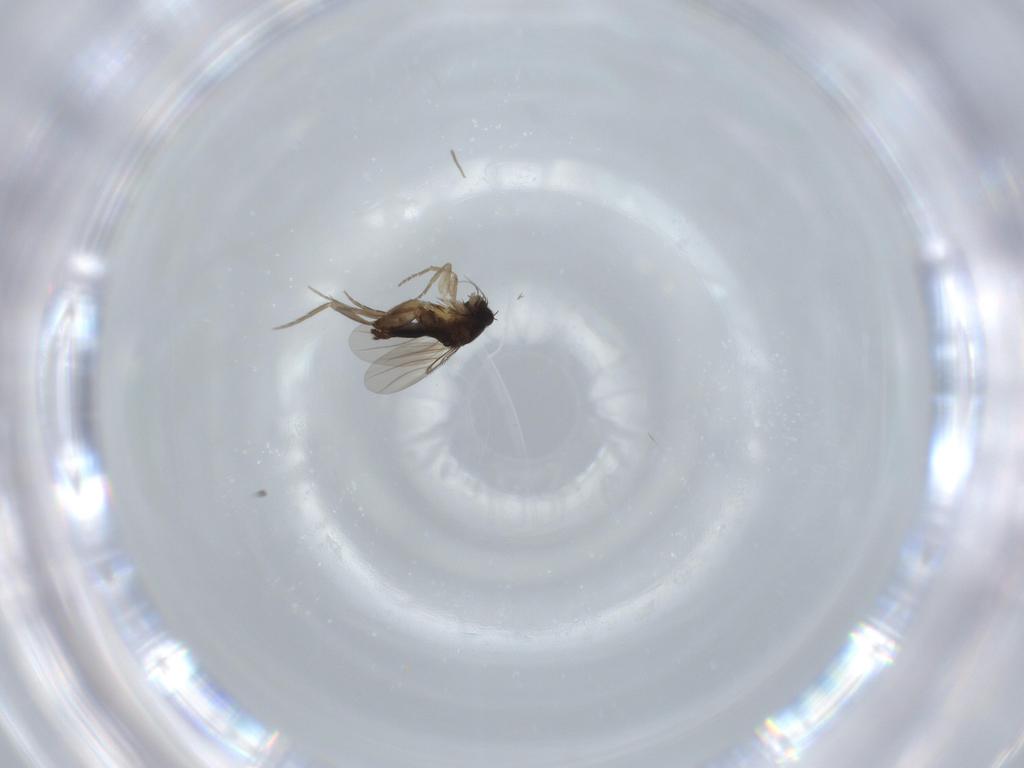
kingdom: Animalia
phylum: Arthropoda
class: Insecta
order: Diptera
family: Phoridae
